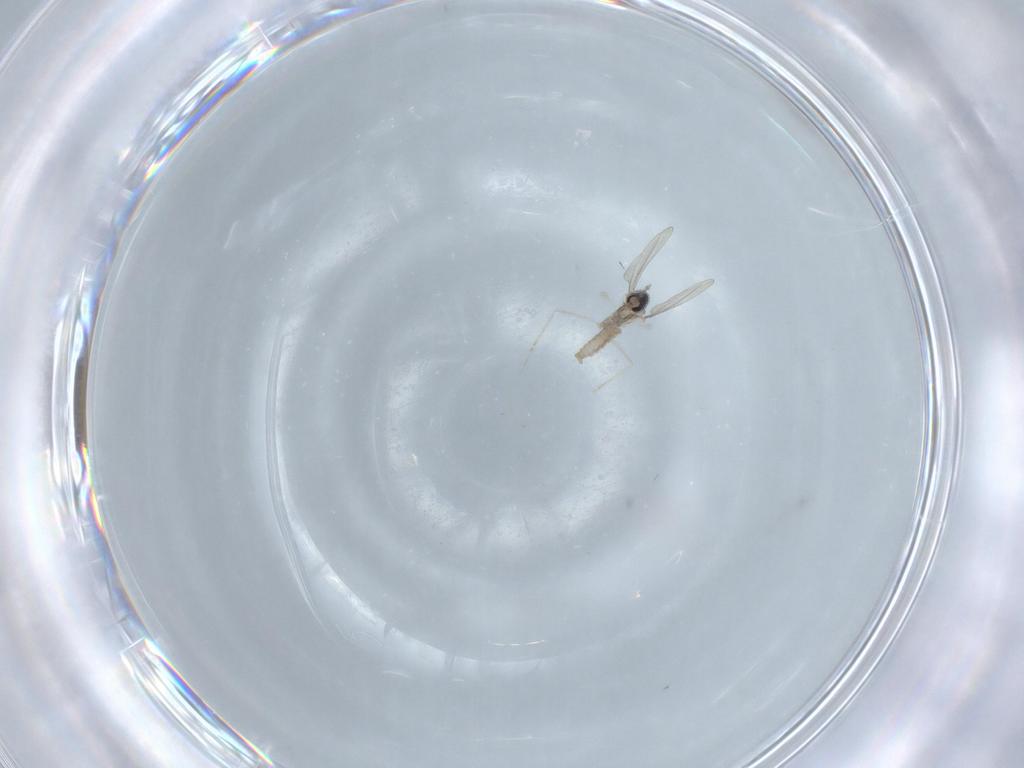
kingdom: Animalia
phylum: Arthropoda
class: Insecta
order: Diptera
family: Cecidomyiidae
